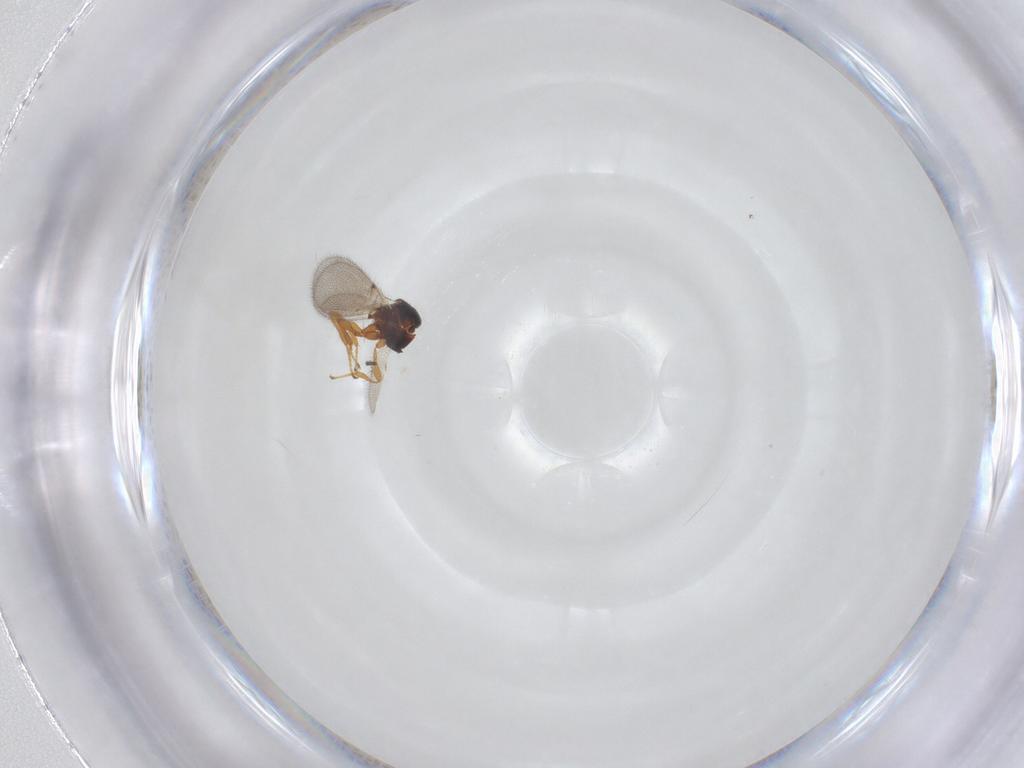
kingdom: Animalia
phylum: Arthropoda
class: Insecta
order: Hymenoptera
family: Diapriidae
